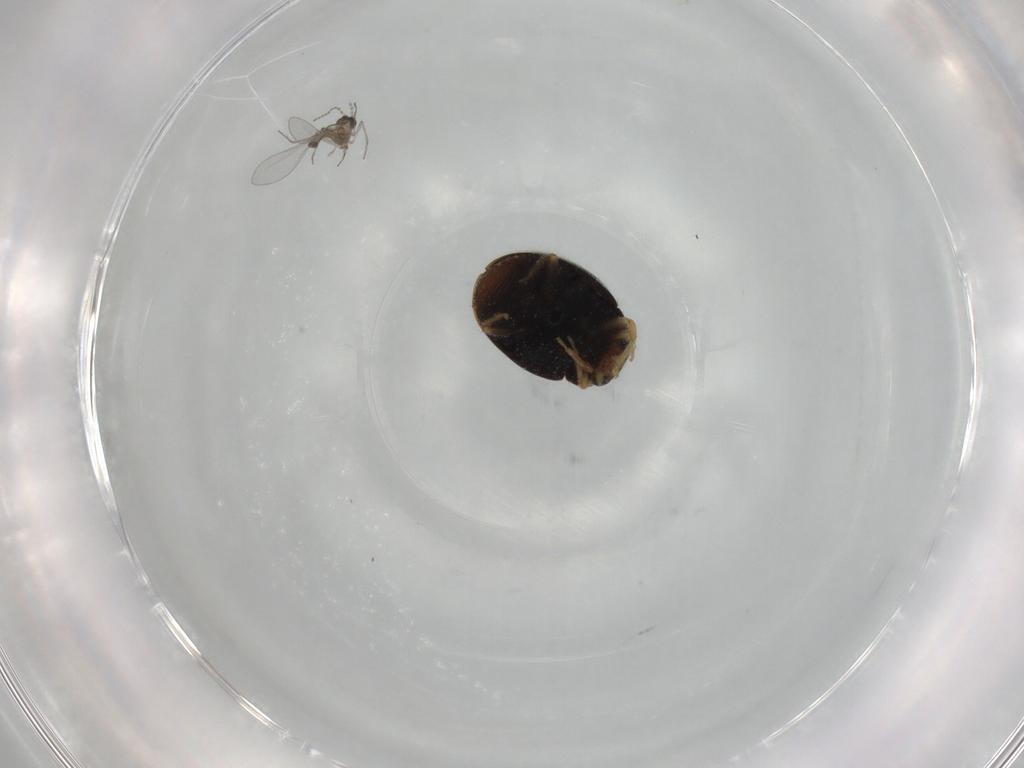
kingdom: Animalia
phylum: Arthropoda
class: Insecta
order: Diptera
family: Cecidomyiidae
